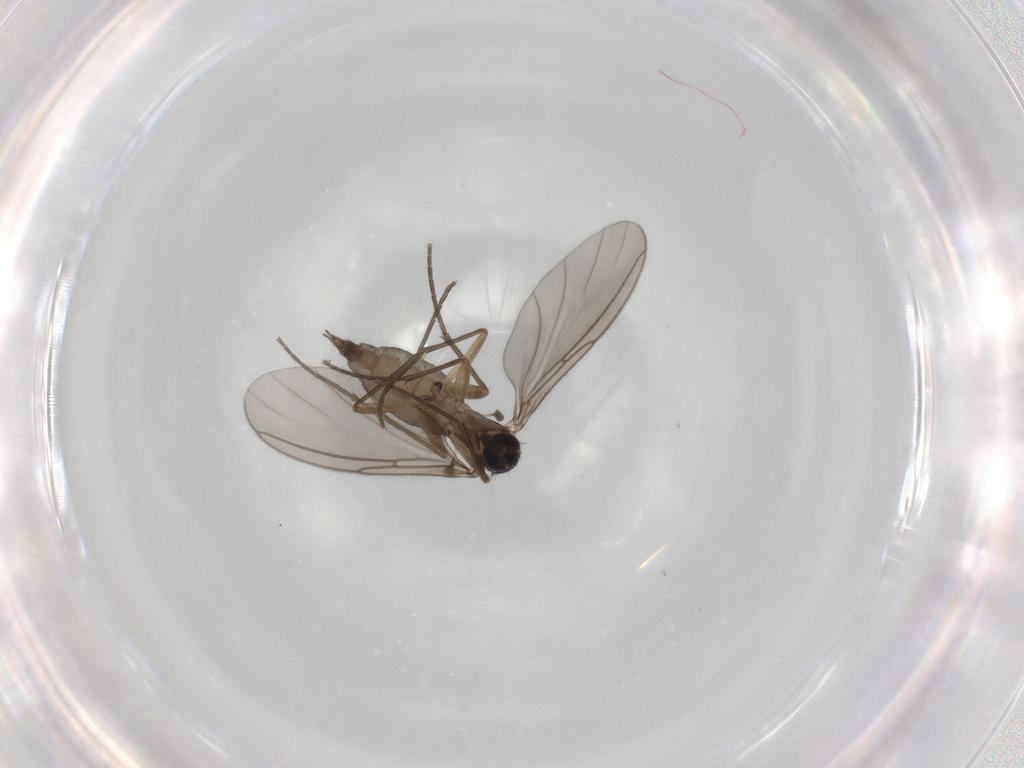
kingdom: Animalia
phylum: Arthropoda
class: Insecta
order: Diptera
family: Sciaridae
